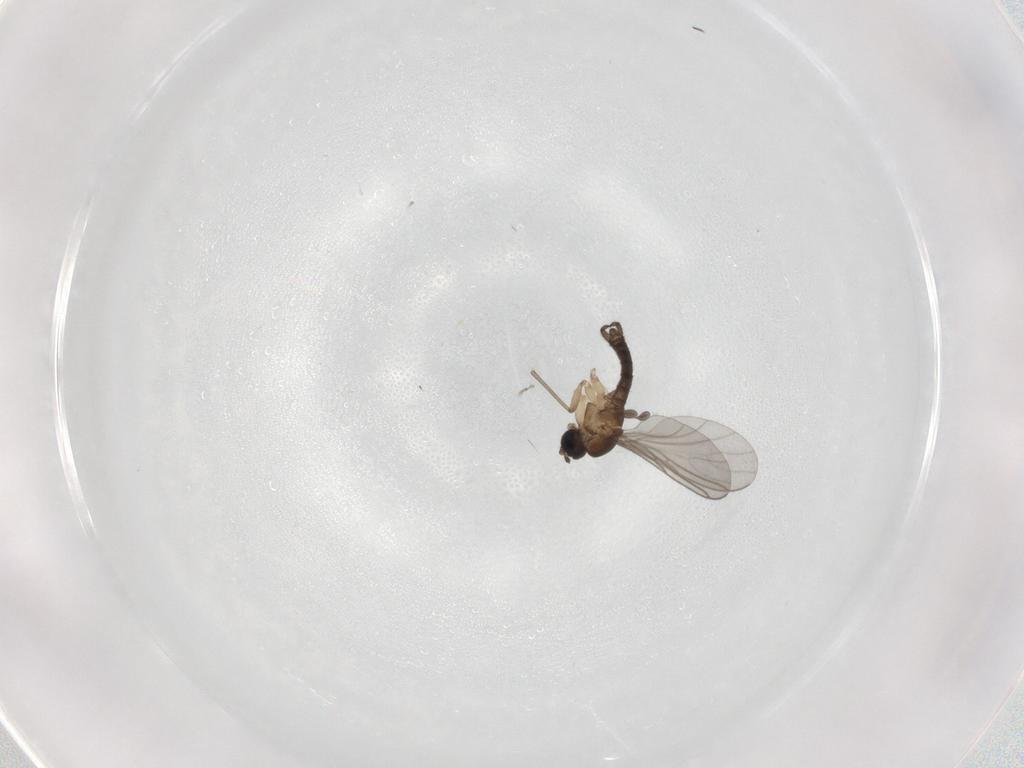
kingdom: Animalia
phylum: Arthropoda
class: Insecta
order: Diptera
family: Sciaridae
